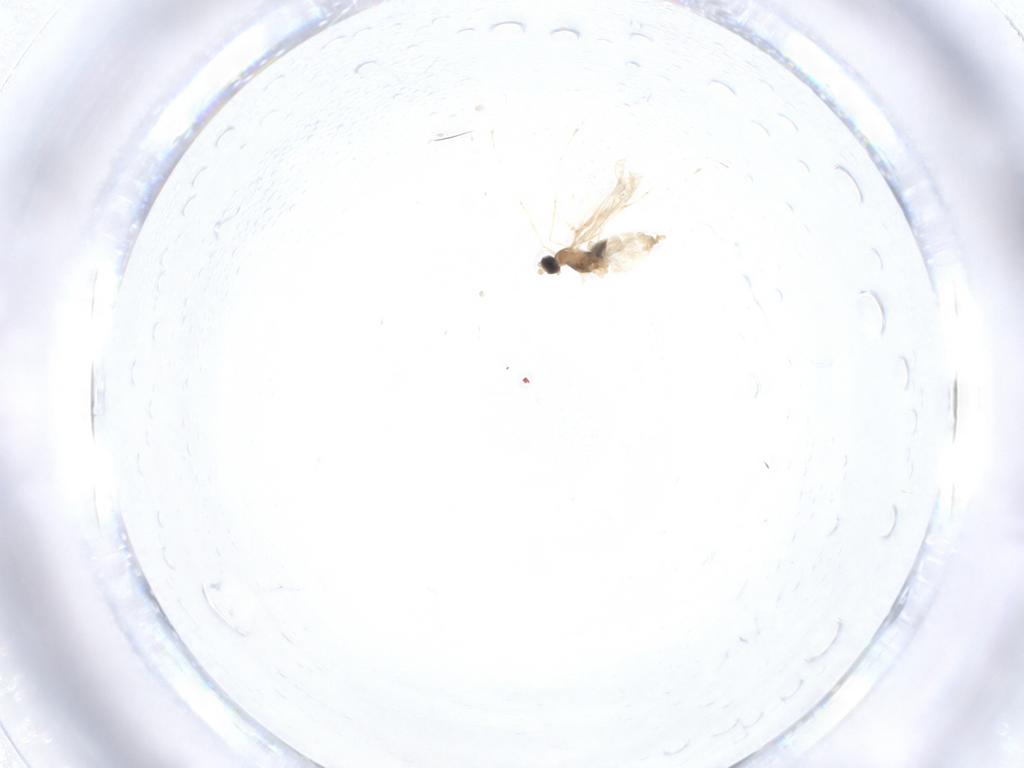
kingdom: Animalia
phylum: Arthropoda
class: Insecta
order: Diptera
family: Cecidomyiidae
